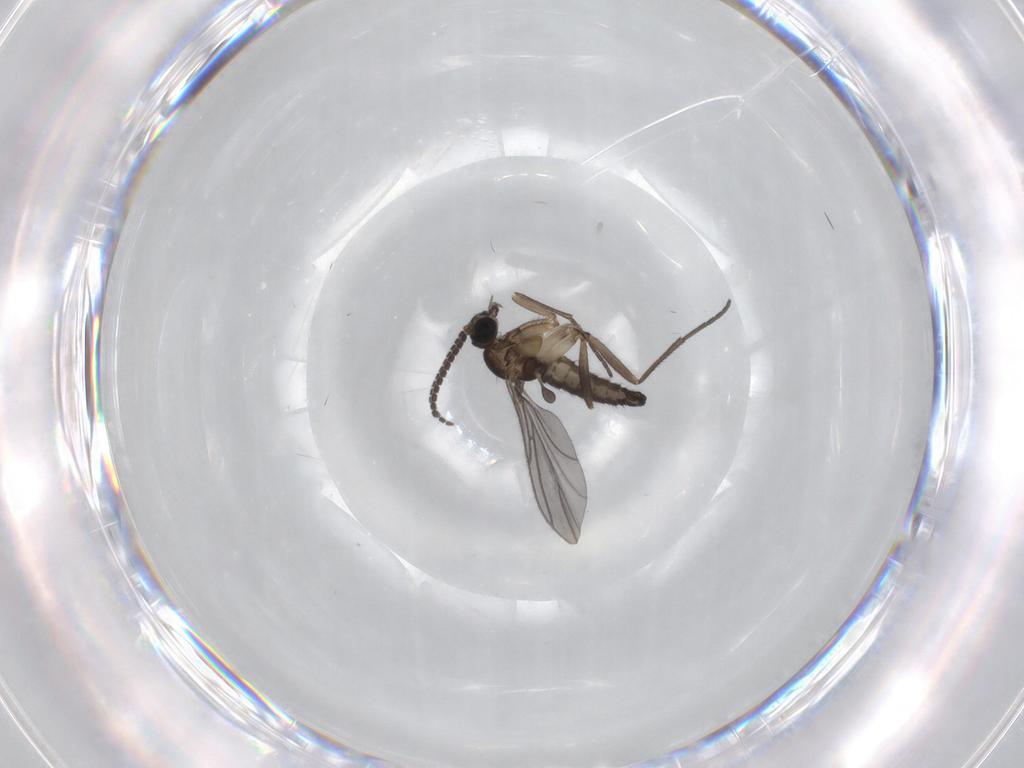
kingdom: Animalia
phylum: Arthropoda
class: Insecta
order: Diptera
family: Sciaridae
